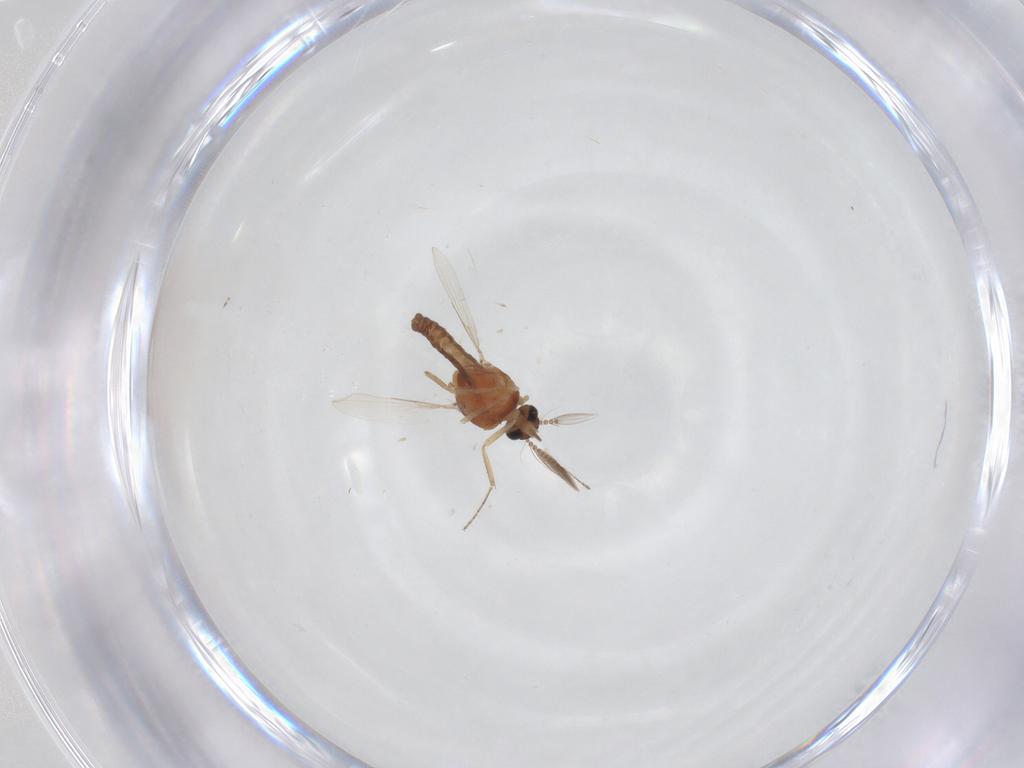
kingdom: Animalia
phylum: Arthropoda
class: Insecta
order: Diptera
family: Ceratopogonidae
